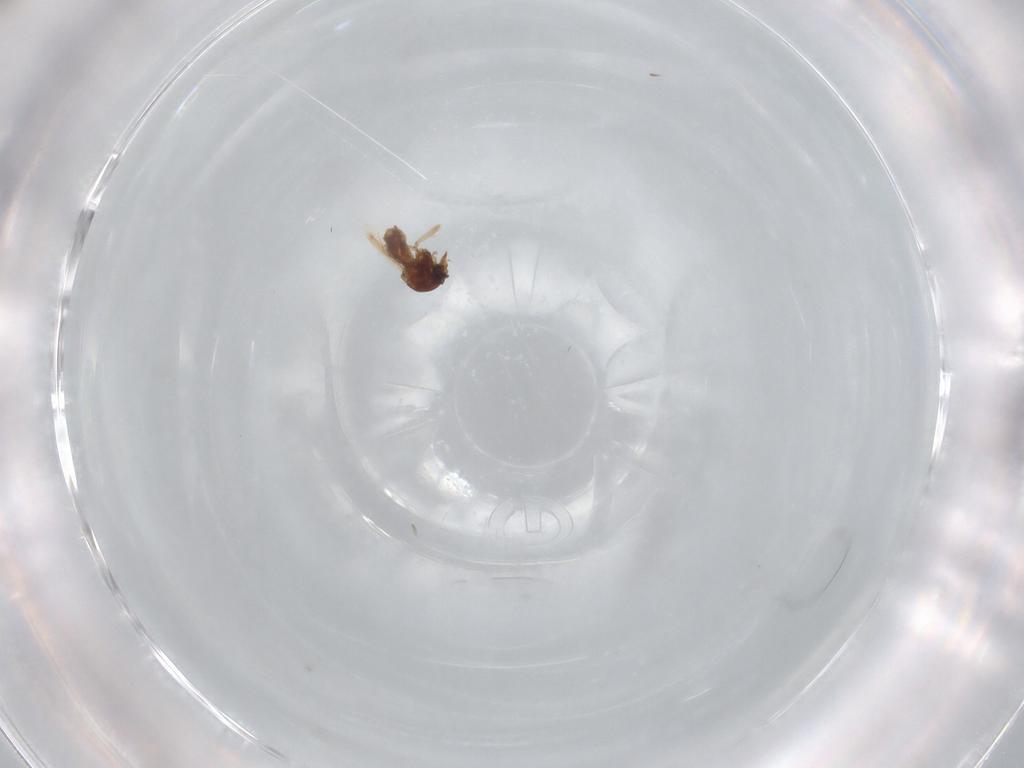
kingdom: Animalia
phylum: Arthropoda
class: Insecta
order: Diptera
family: Ceratopogonidae
